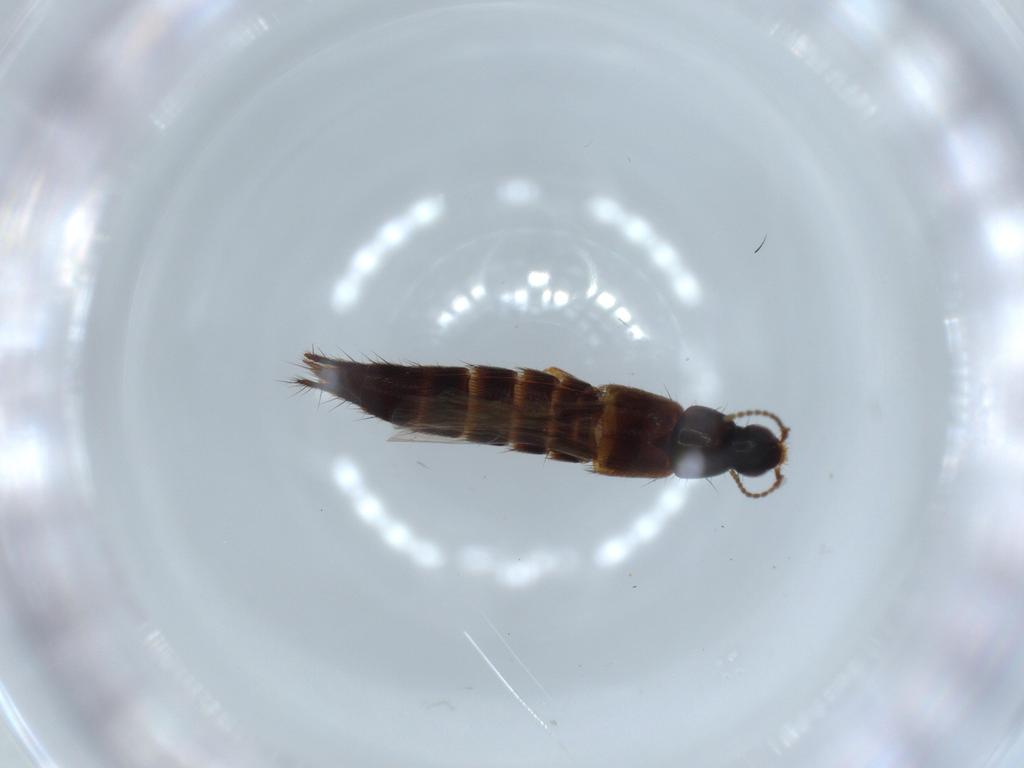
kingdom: Animalia
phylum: Arthropoda
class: Insecta
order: Coleoptera
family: Staphylinidae
